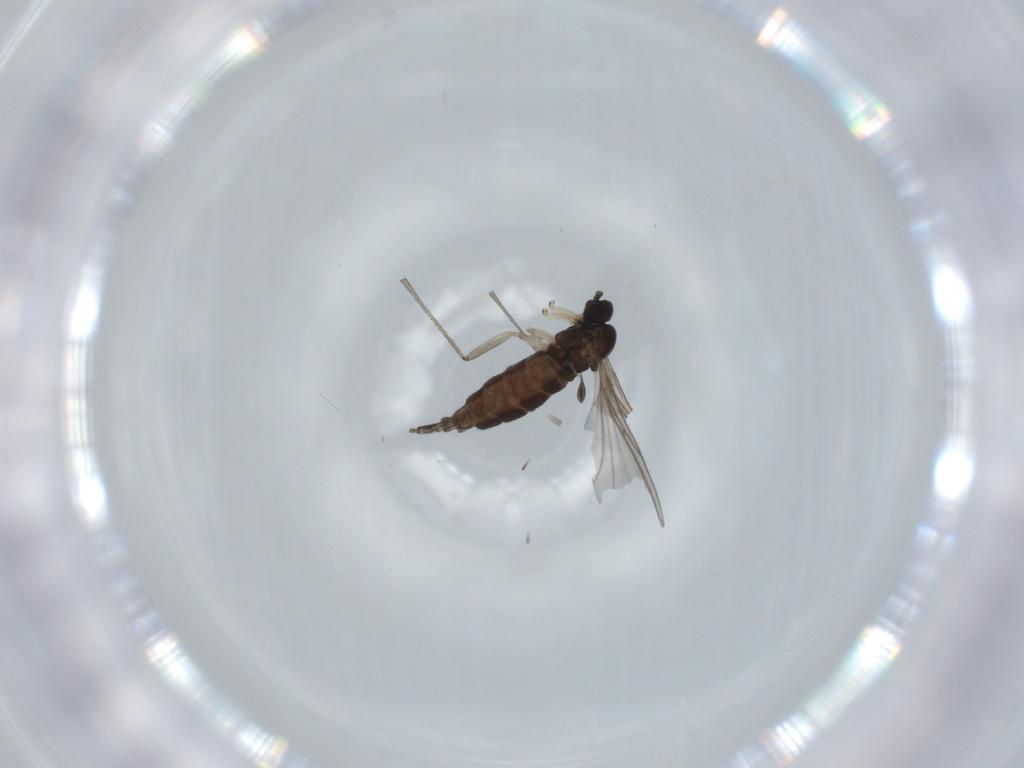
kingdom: Animalia
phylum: Arthropoda
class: Insecta
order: Diptera
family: Sciaridae
